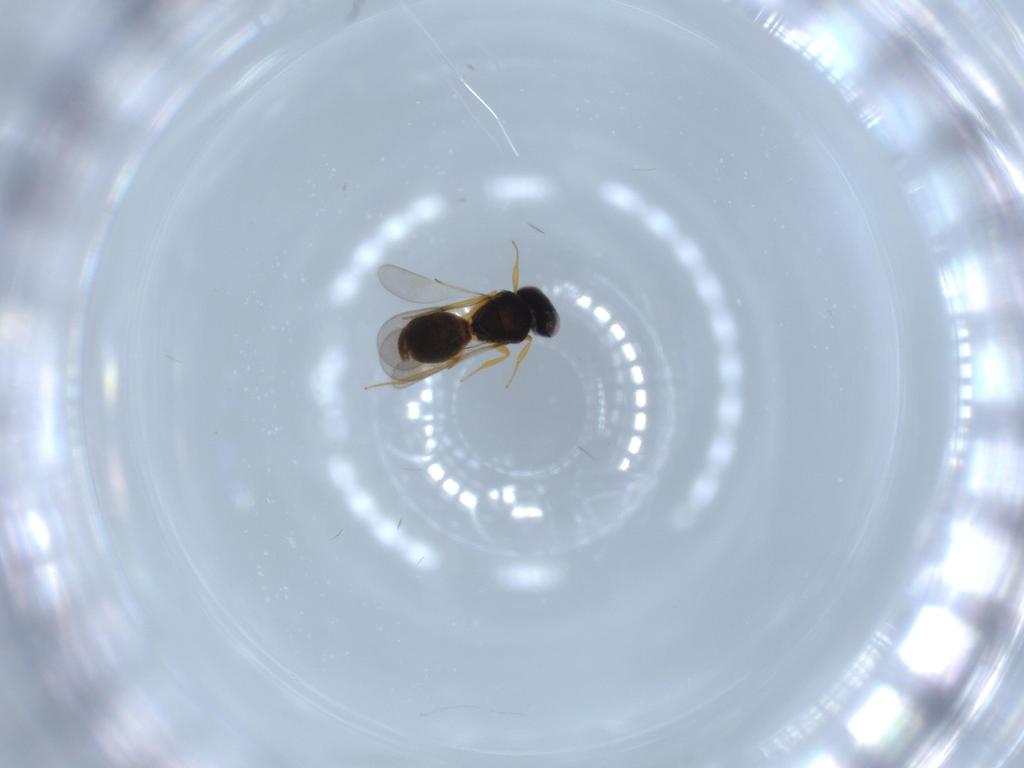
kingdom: Animalia
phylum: Arthropoda
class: Insecta
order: Hymenoptera
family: Scelionidae
